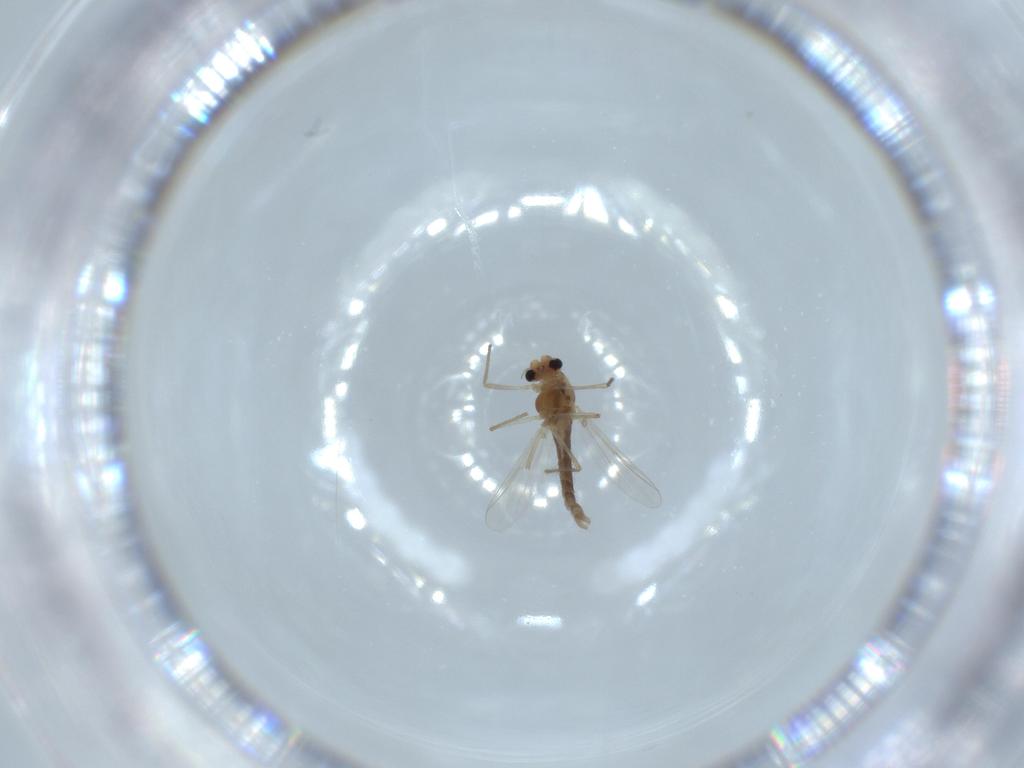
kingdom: Animalia
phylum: Arthropoda
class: Insecta
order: Diptera
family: Chironomidae
